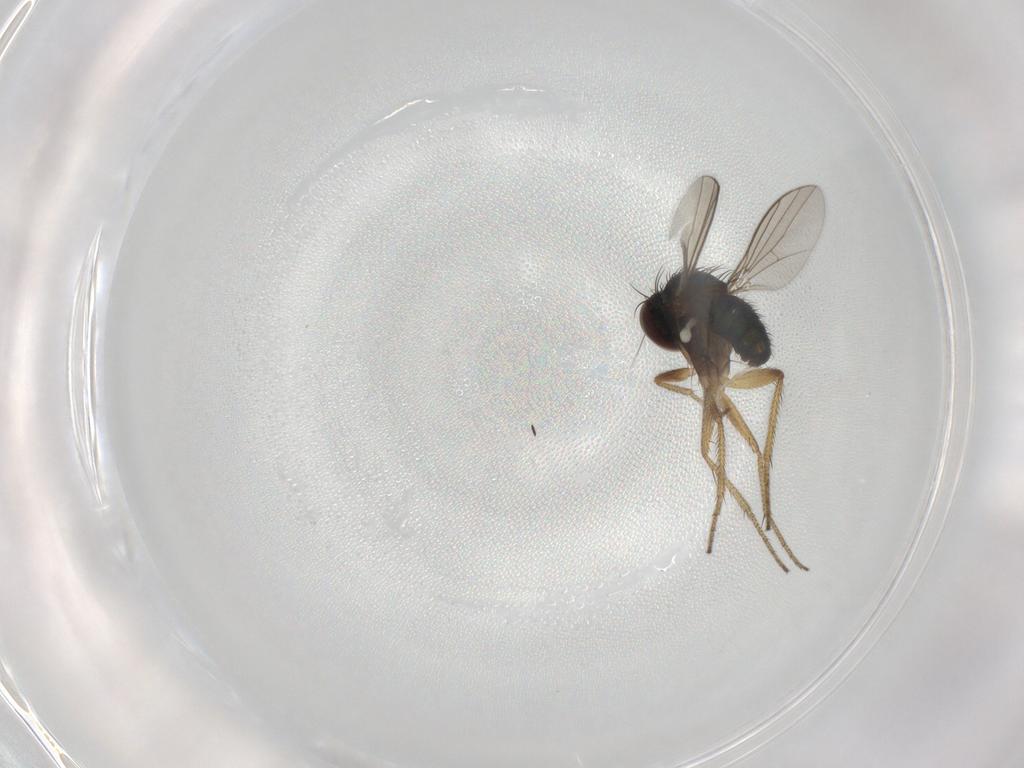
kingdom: Animalia
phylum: Arthropoda
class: Insecta
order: Diptera
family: Dolichopodidae
